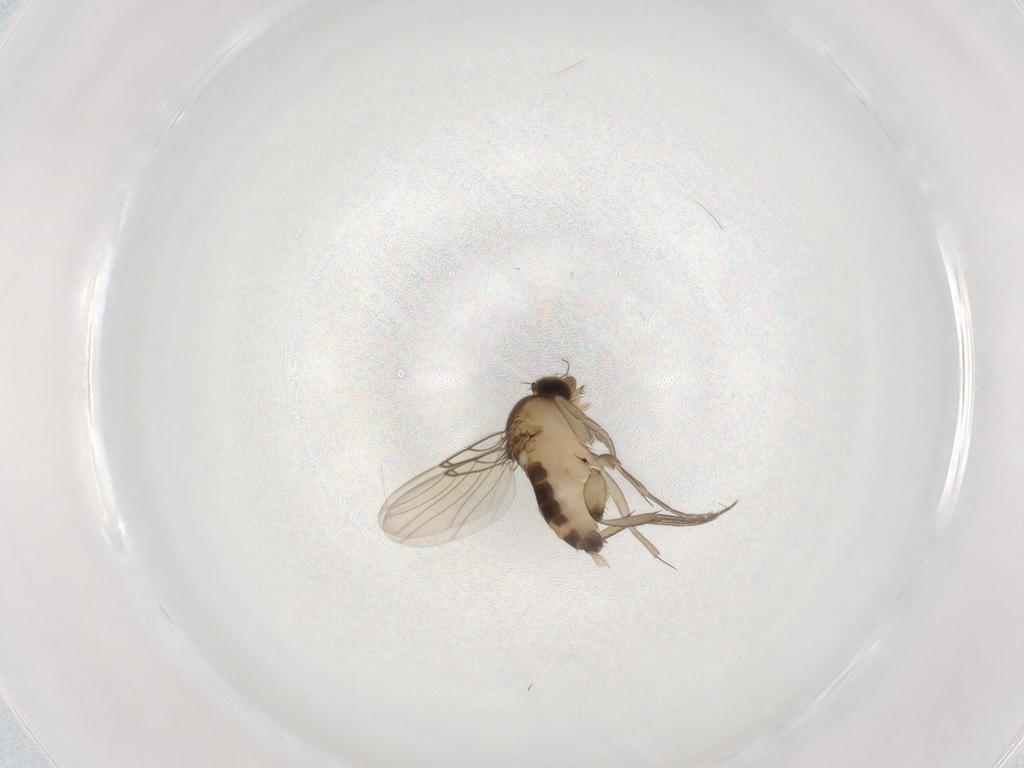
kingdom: Animalia
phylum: Arthropoda
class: Insecta
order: Diptera
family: Phoridae
